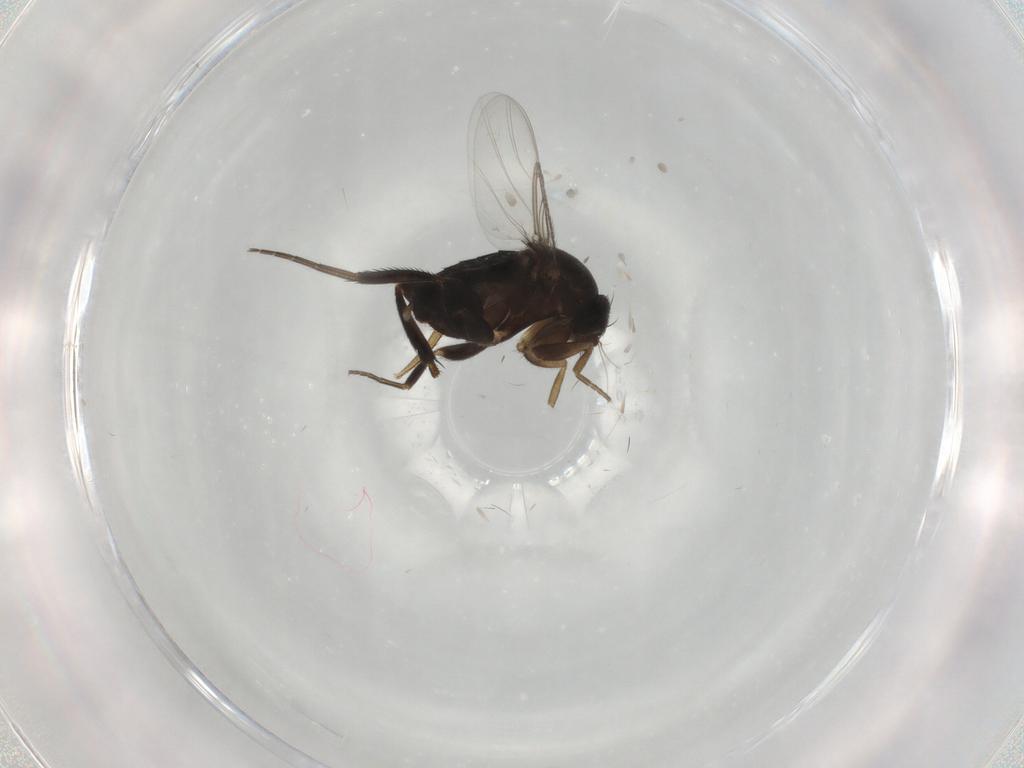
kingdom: Animalia
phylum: Arthropoda
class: Insecta
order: Diptera
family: Phoridae
